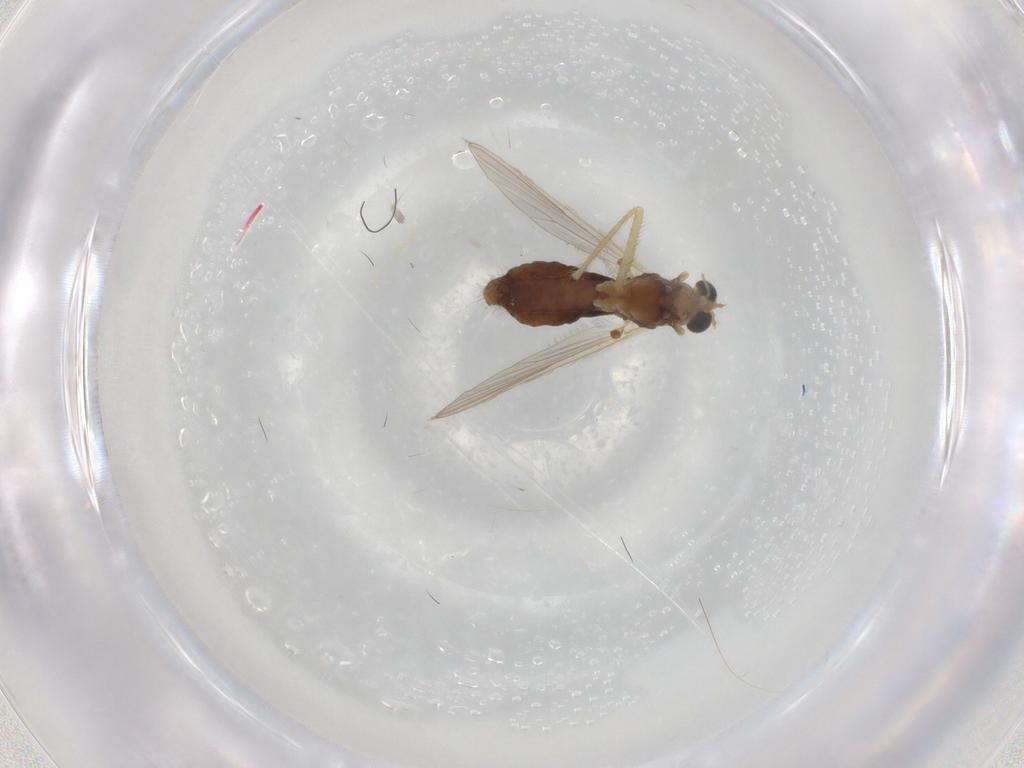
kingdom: Animalia
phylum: Arthropoda
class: Insecta
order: Diptera
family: Chironomidae
